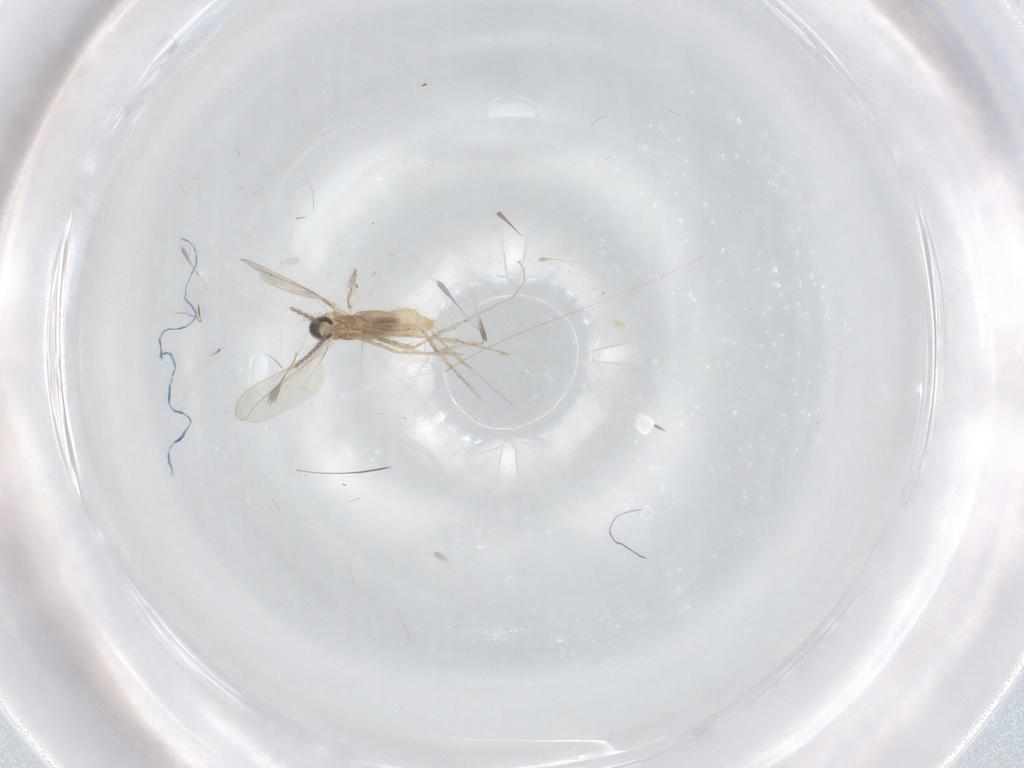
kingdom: Animalia
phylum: Arthropoda
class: Insecta
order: Diptera
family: Cecidomyiidae
